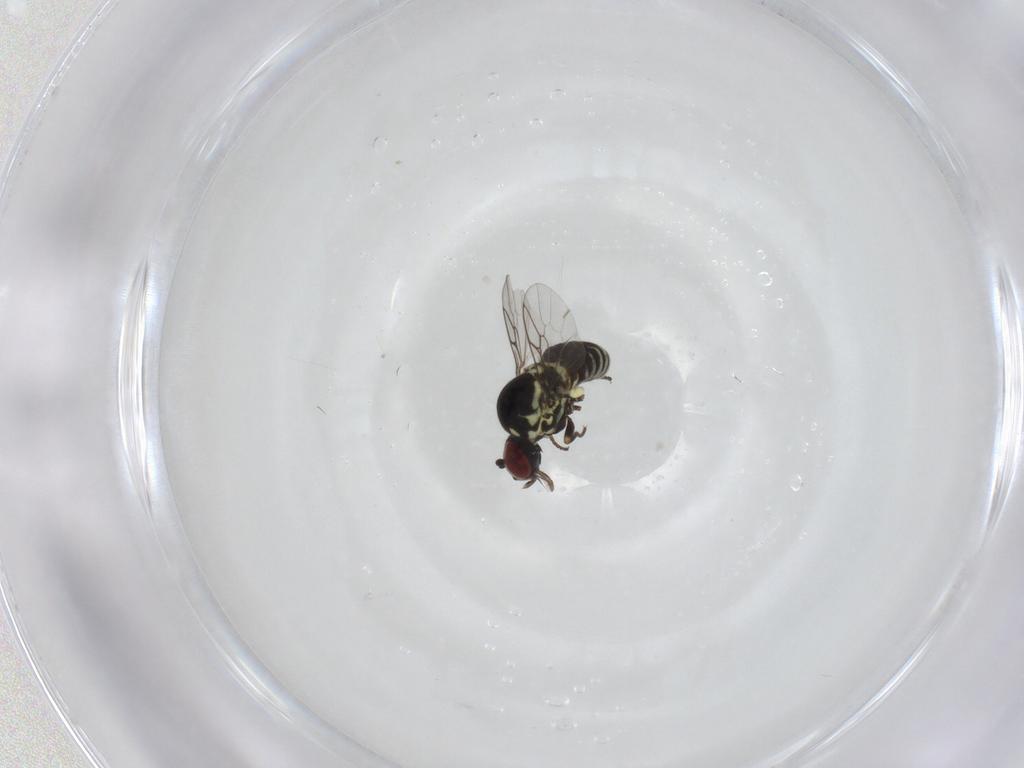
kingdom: Animalia
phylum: Arthropoda
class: Insecta
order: Diptera
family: Mythicomyiidae
